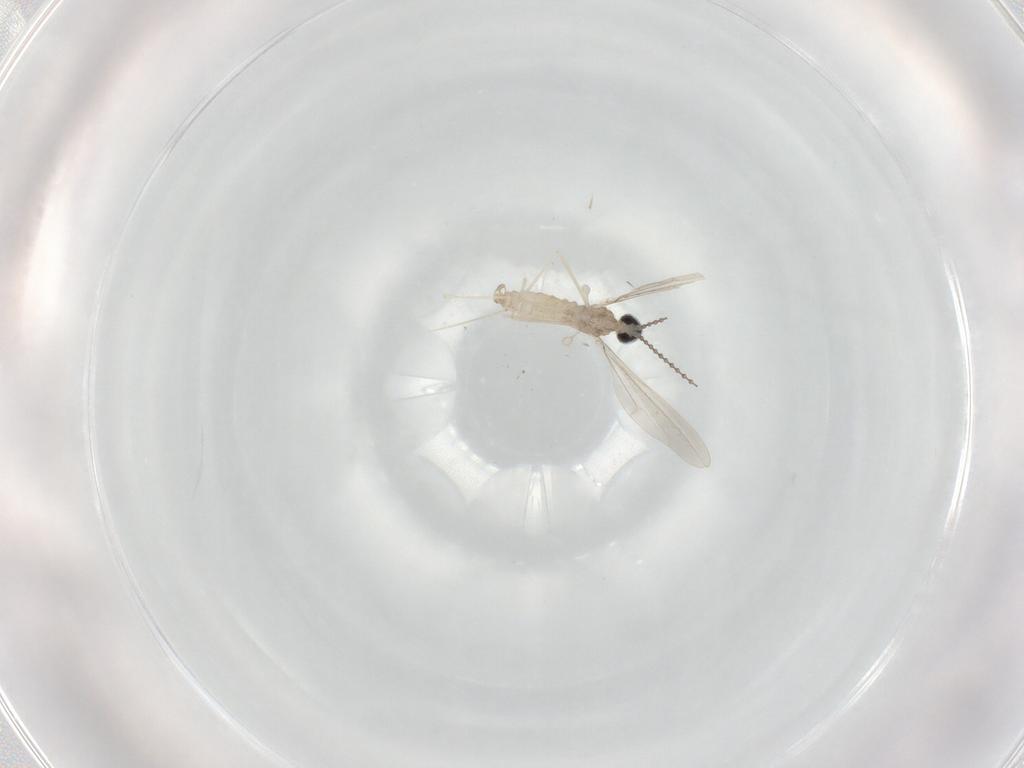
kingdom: Animalia
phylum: Arthropoda
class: Insecta
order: Diptera
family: Cecidomyiidae
